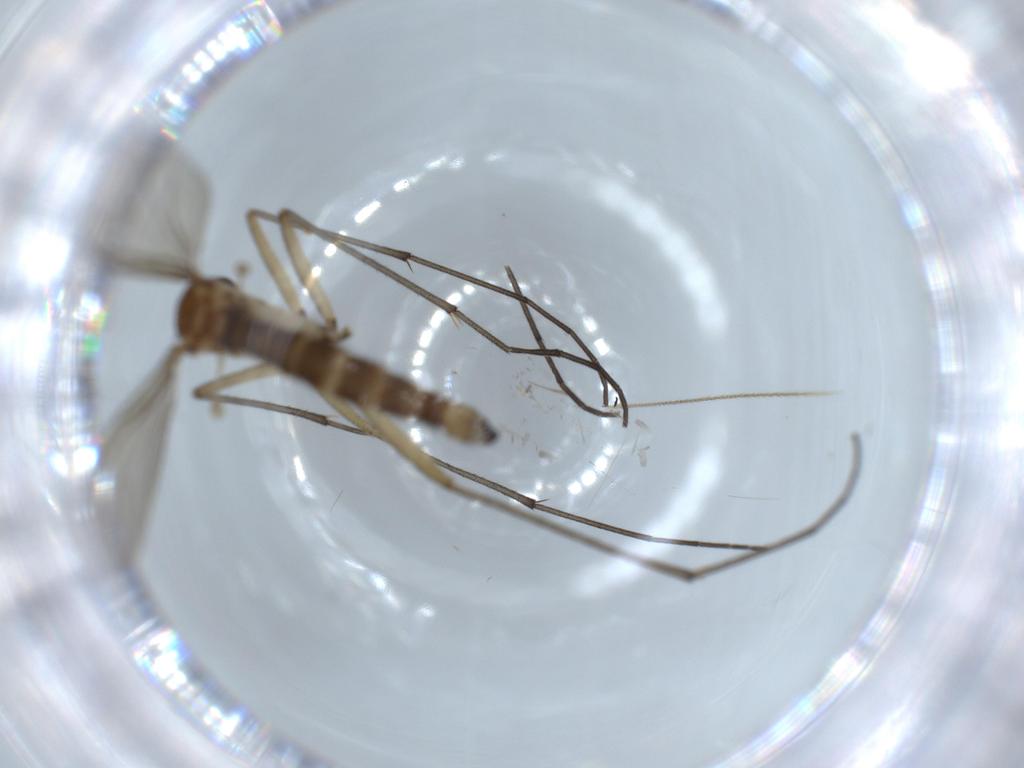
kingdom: Animalia
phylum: Arthropoda
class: Insecta
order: Diptera
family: Sciaridae
